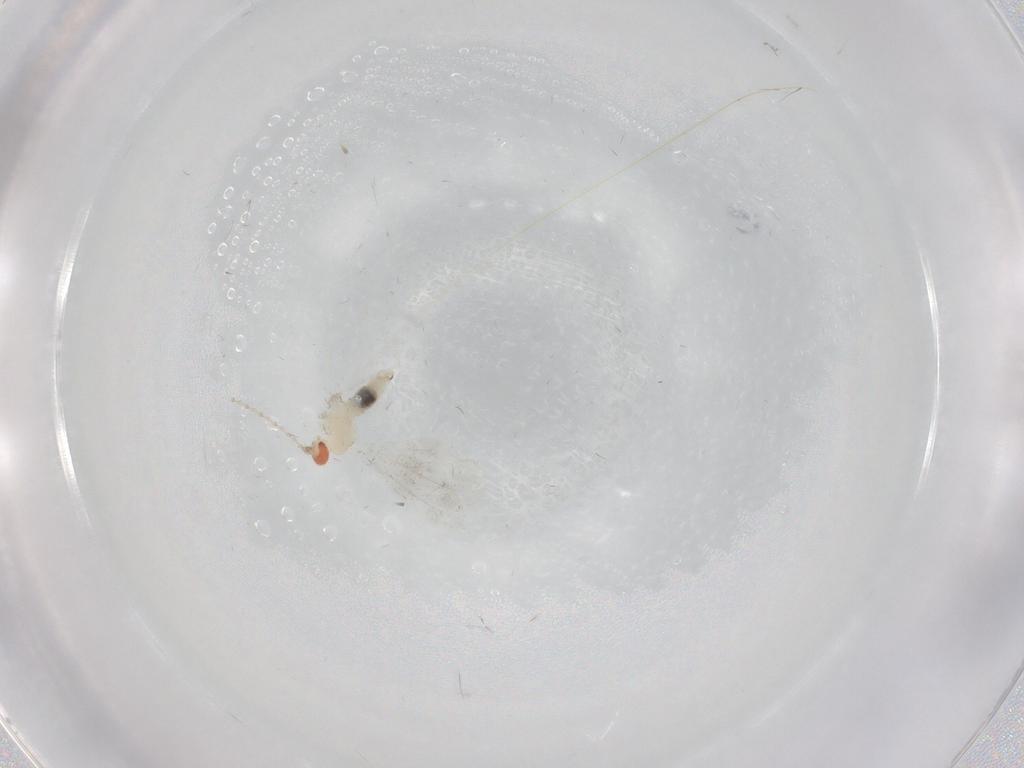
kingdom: Animalia
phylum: Arthropoda
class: Insecta
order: Diptera
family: Cecidomyiidae
